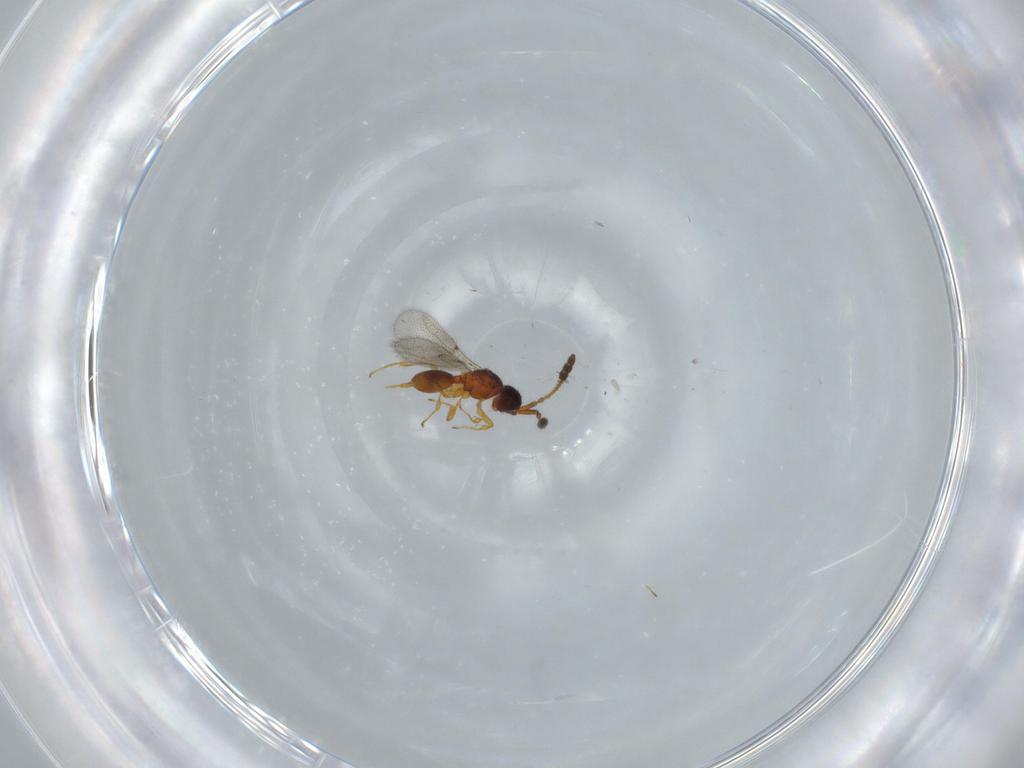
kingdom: Animalia
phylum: Arthropoda
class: Insecta
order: Hymenoptera
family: Diapriidae
